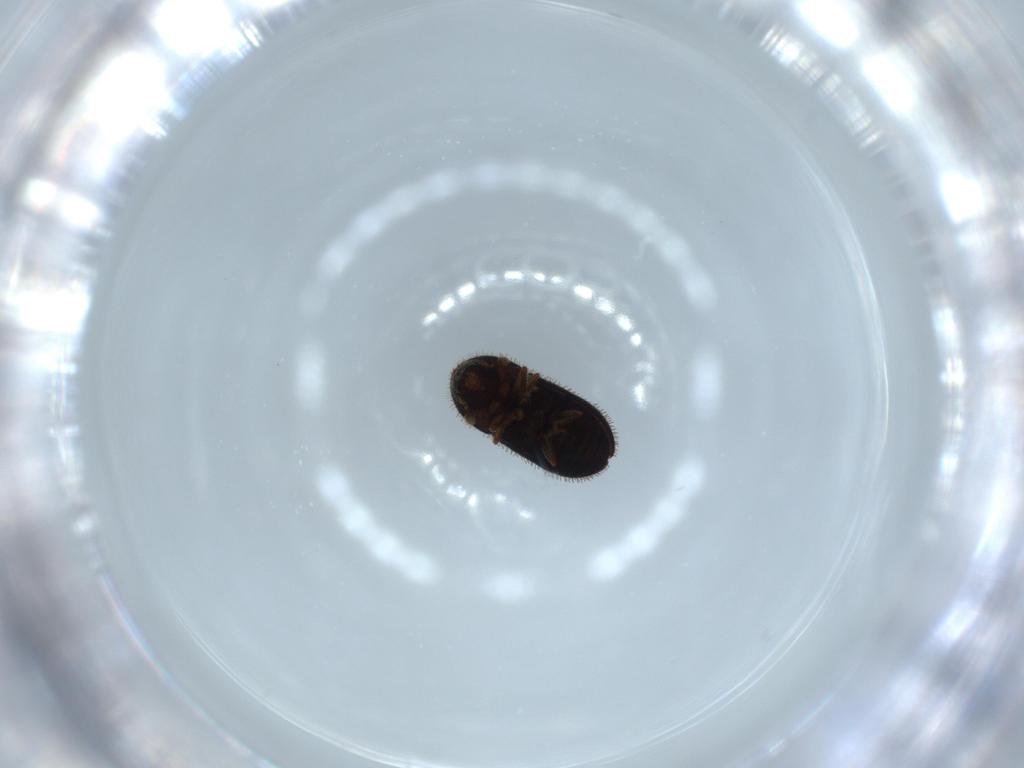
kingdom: Animalia
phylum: Arthropoda
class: Insecta
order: Coleoptera
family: Curculionidae
